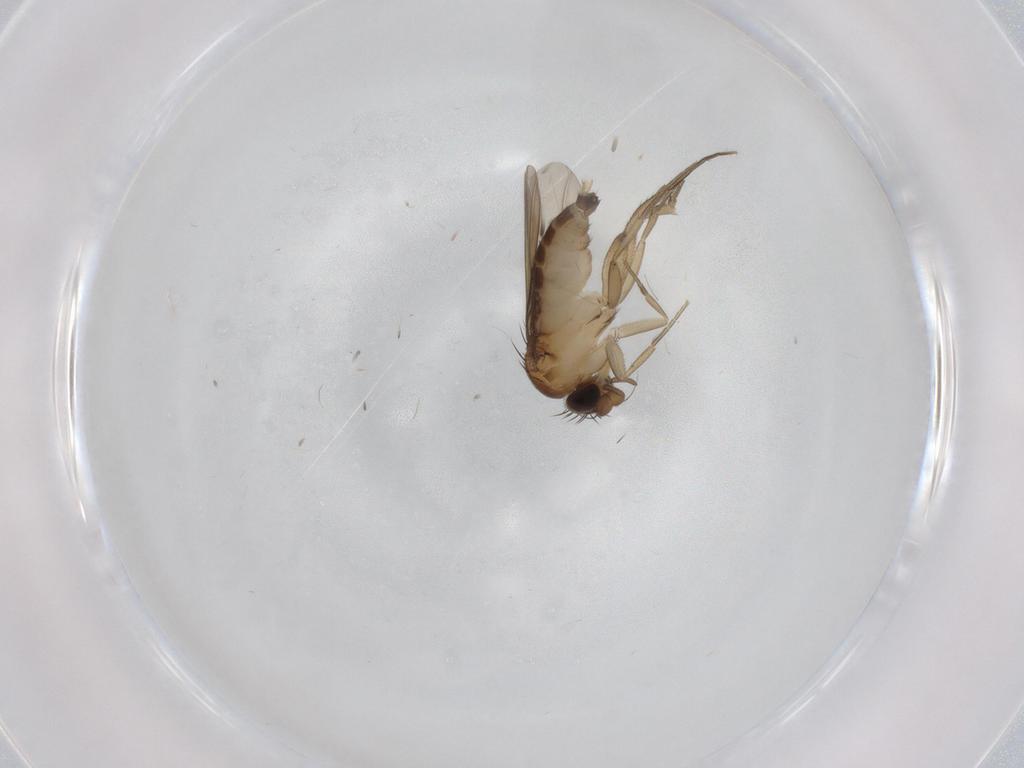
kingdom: Animalia
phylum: Arthropoda
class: Insecta
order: Diptera
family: Phoridae
